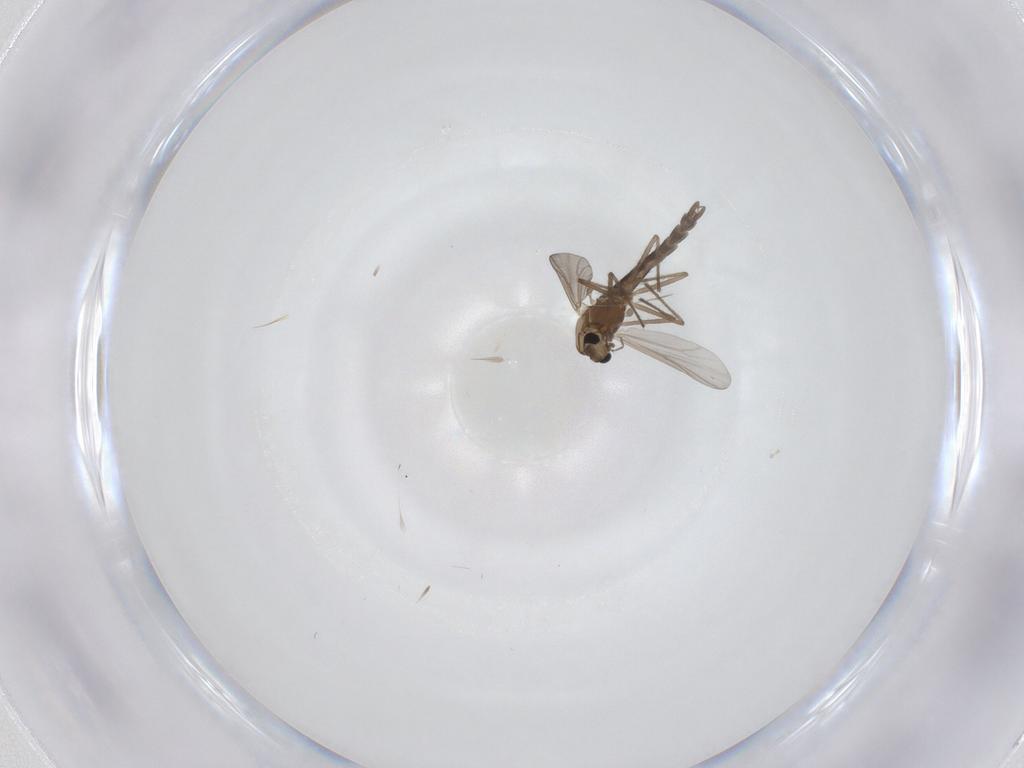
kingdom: Animalia
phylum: Arthropoda
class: Insecta
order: Diptera
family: Chironomidae
